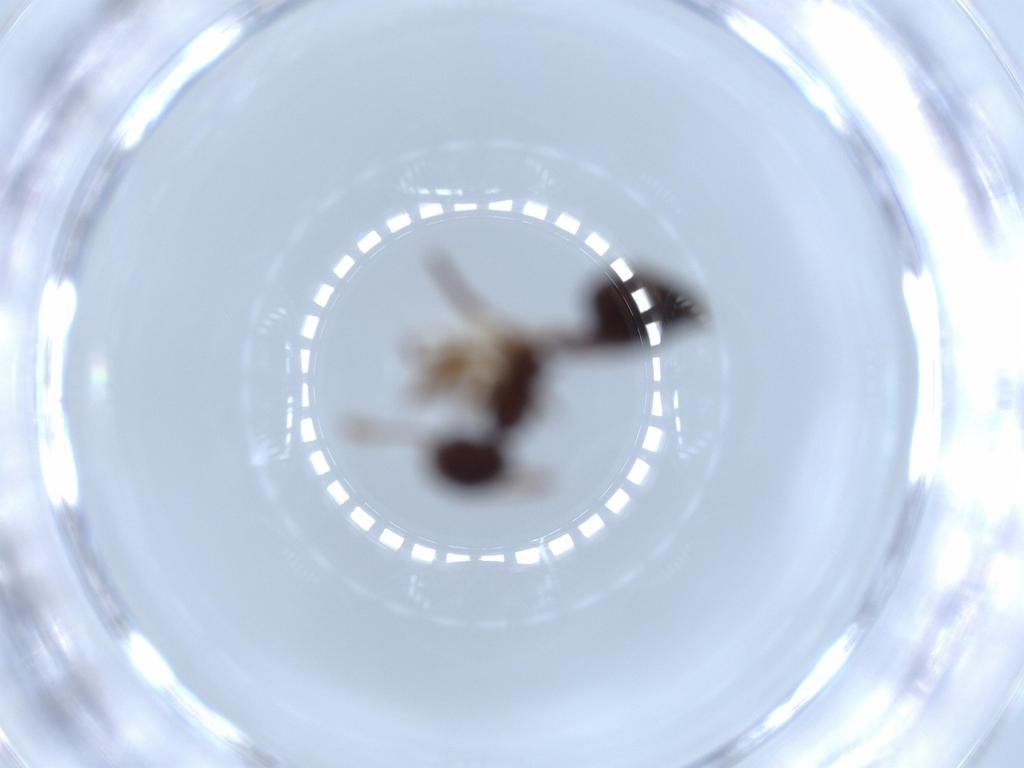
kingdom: Animalia
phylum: Arthropoda
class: Insecta
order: Hymenoptera
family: Formicidae
